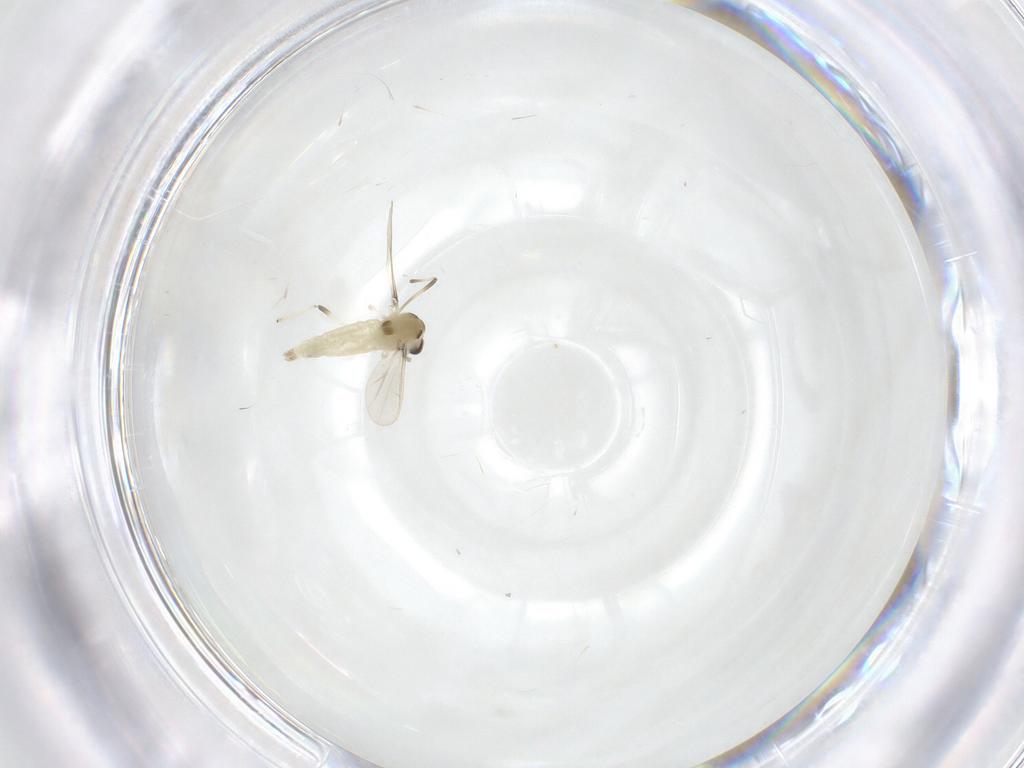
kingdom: Animalia
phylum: Arthropoda
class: Insecta
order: Diptera
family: Chironomidae
